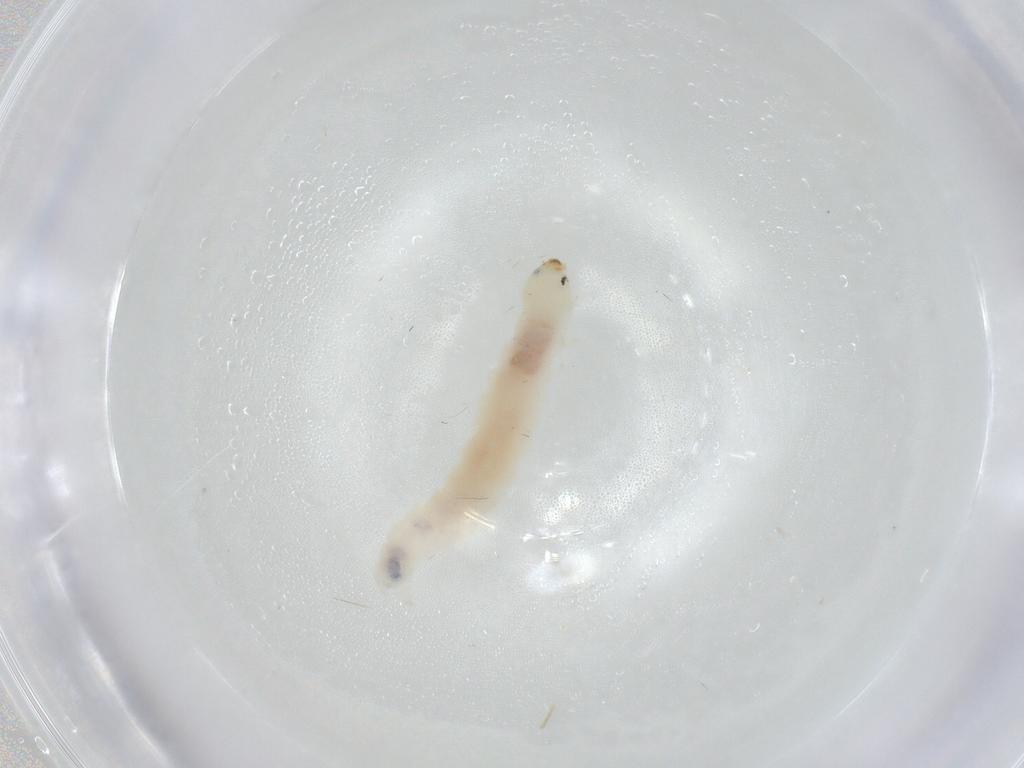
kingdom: Animalia
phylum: Arthropoda
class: Insecta
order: Lepidoptera
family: Depressariidae
